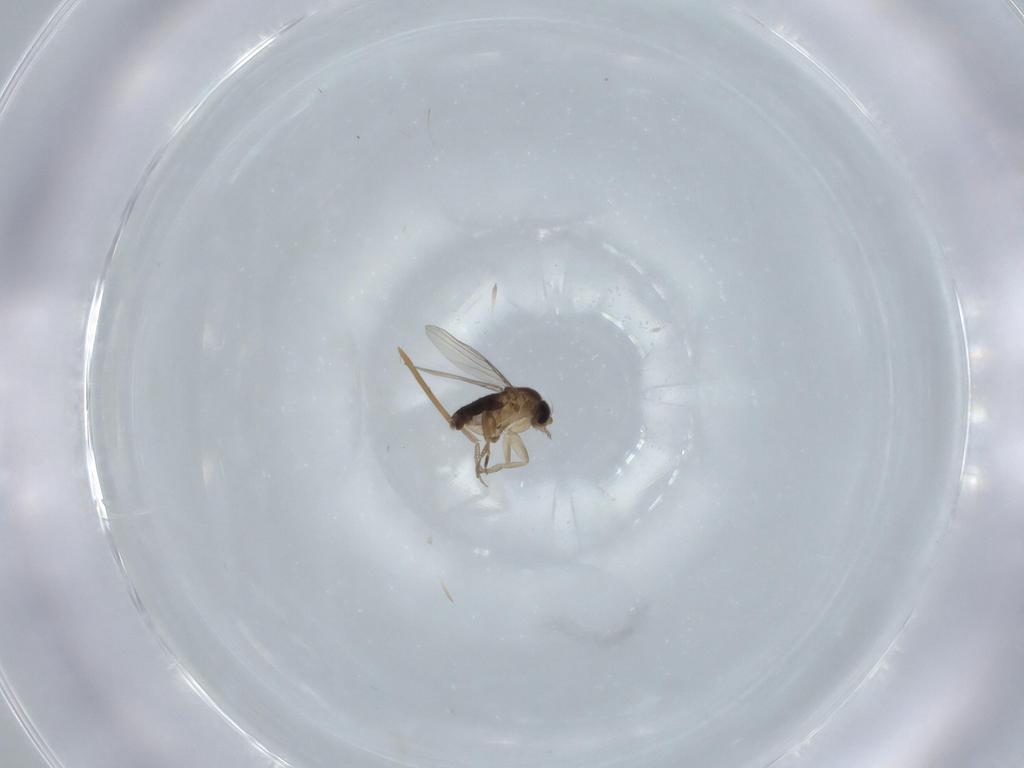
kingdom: Animalia
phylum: Arthropoda
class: Insecta
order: Diptera
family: Phoridae
